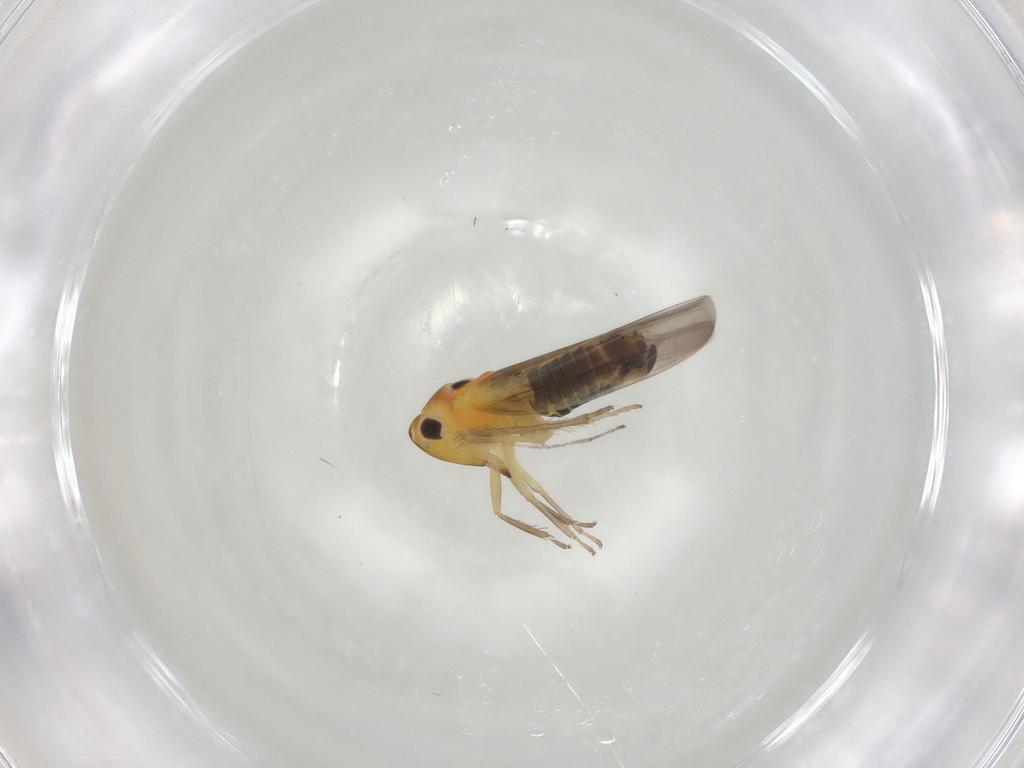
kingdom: Animalia
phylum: Arthropoda
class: Insecta
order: Hemiptera
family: Cicadellidae
